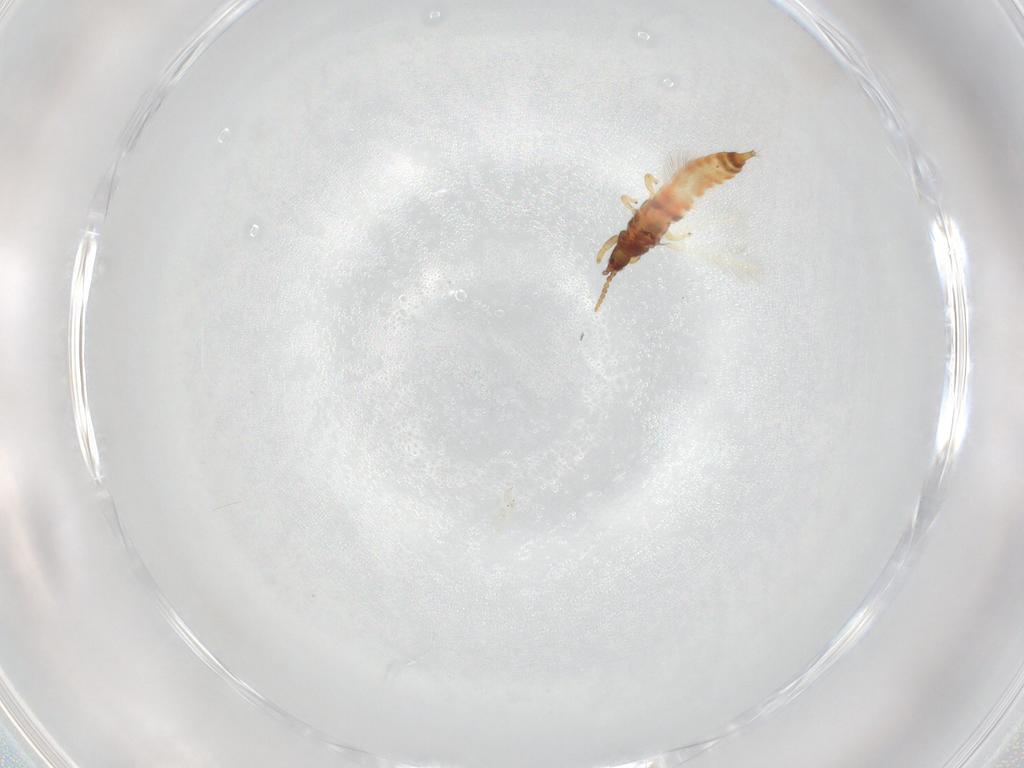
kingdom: Animalia
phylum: Arthropoda
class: Insecta
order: Thysanoptera
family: Phlaeothripidae
